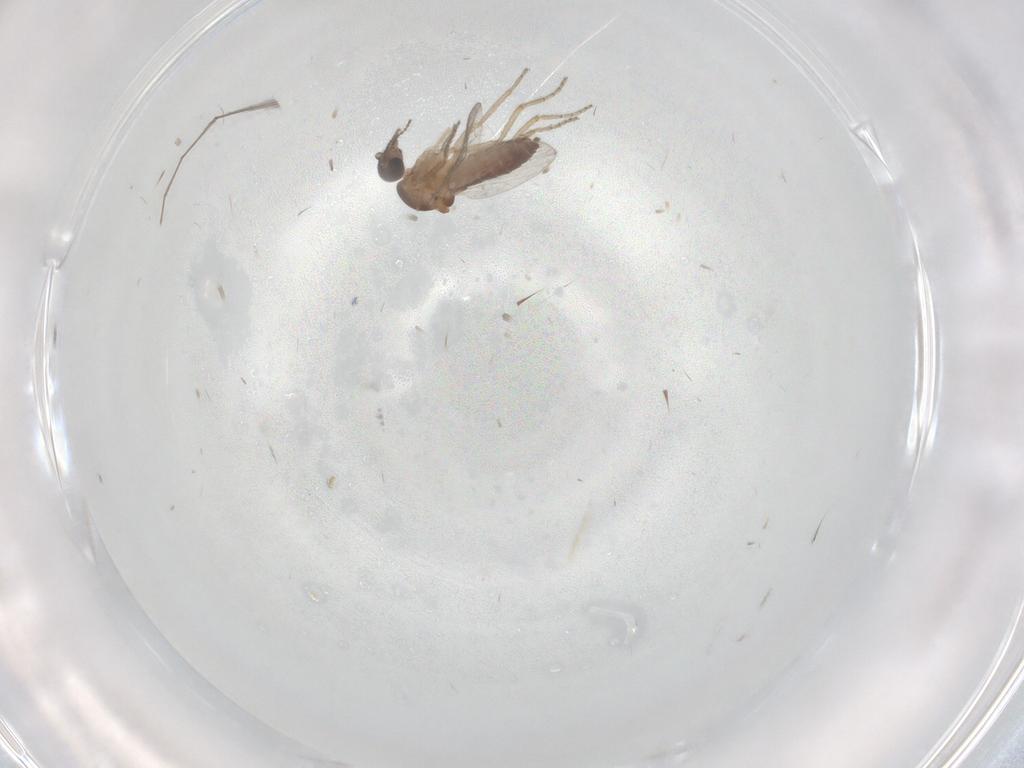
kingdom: Animalia
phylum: Arthropoda
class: Insecta
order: Diptera
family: Ceratopogonidae
